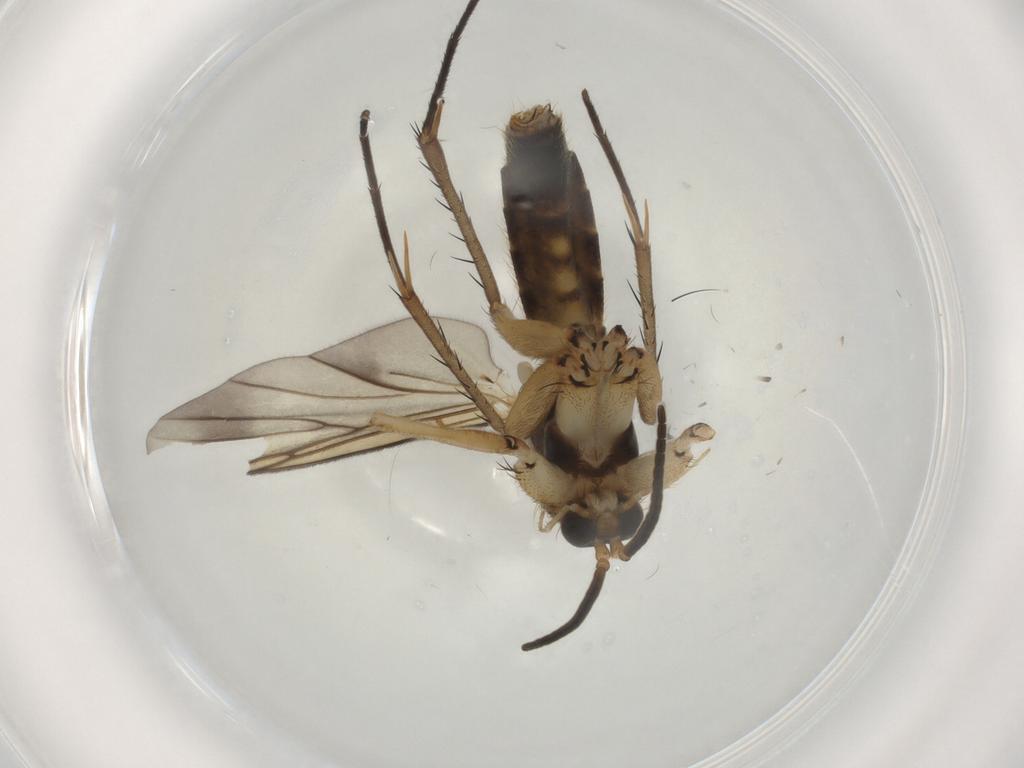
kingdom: Animalia
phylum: Arthropoda
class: Insecta
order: Diptera
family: Mycetophilidae
